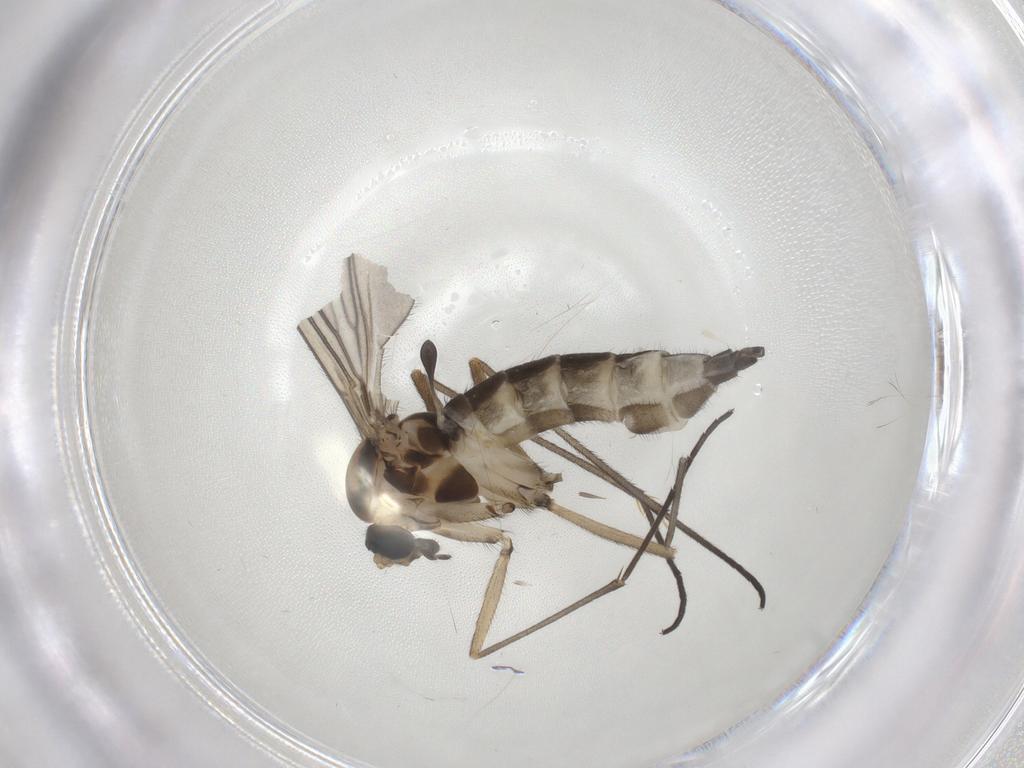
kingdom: Animalia
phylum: Arthropoda
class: Insecta
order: Diptera
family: Sciaridae
